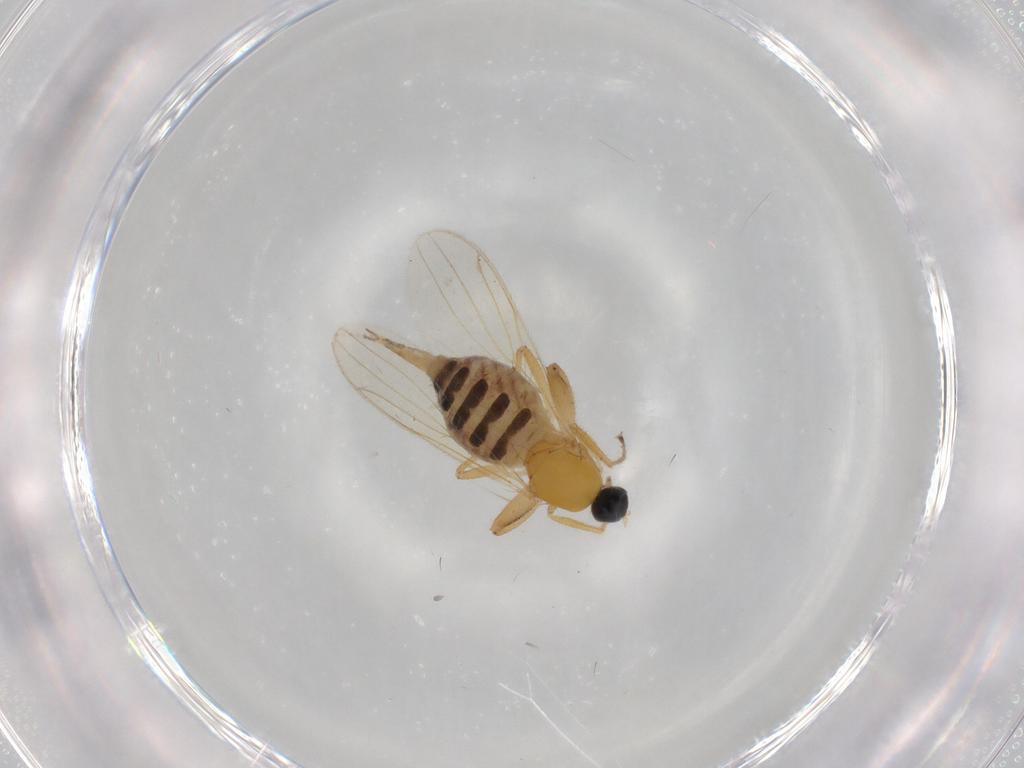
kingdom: Animalia
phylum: Arthropoda
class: Insecta
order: Diptera
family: Hybotidae
